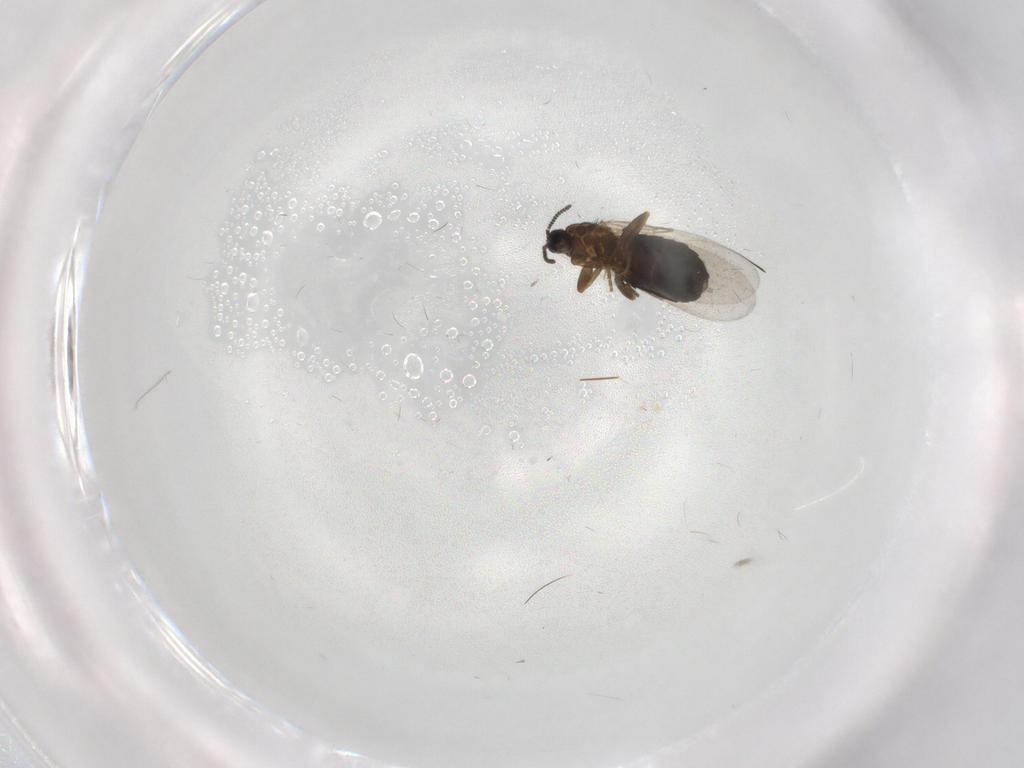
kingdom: Animalia
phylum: Arthropoda
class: Insecta
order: Diptera
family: Scatopsidae
